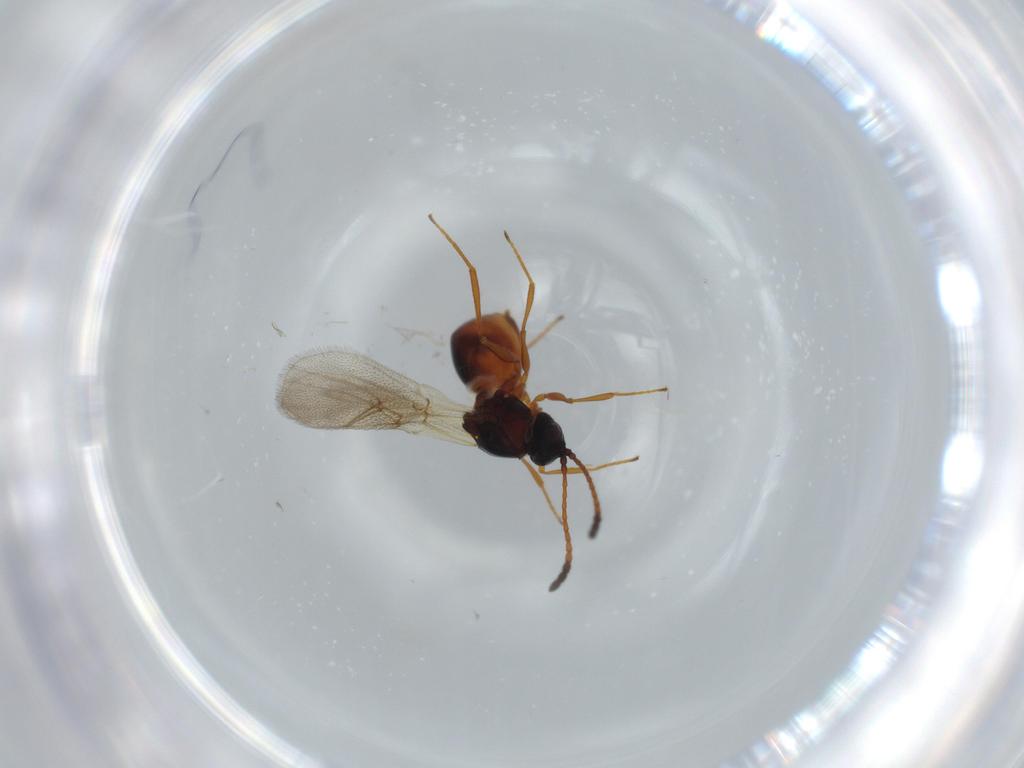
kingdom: Animalia
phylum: Arthropoda
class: Insecta
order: Hymenoptera
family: Figitidae
